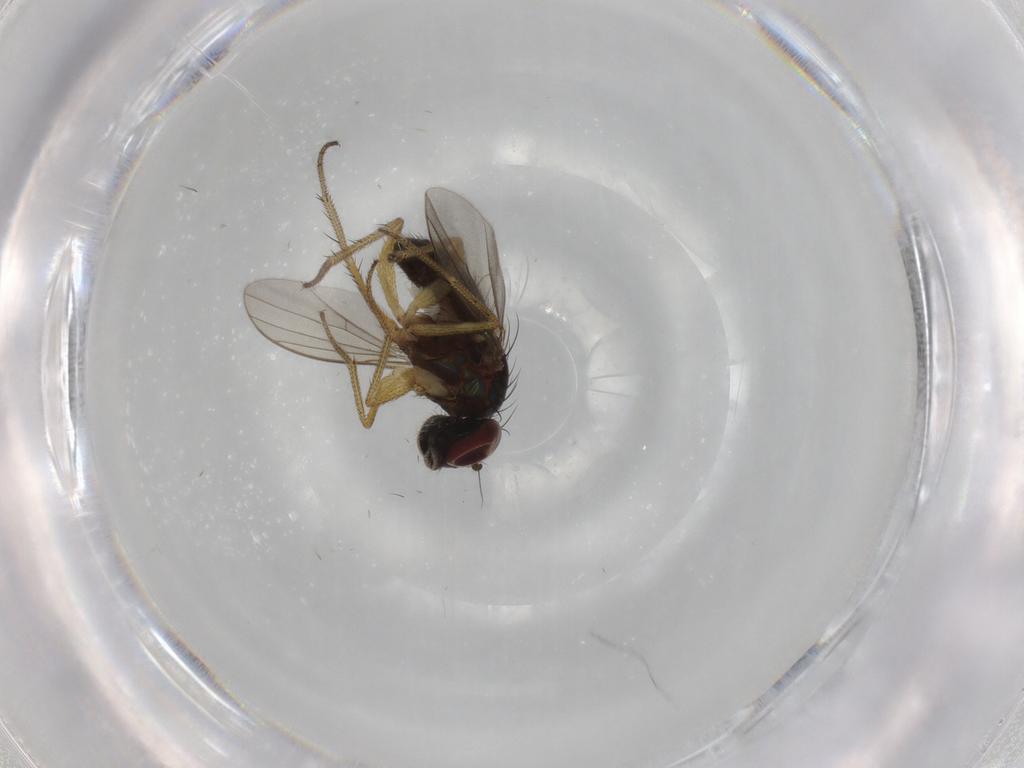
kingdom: Animalia
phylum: Arthropoda
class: Insecta
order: Diptera
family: Dolichopodidae
